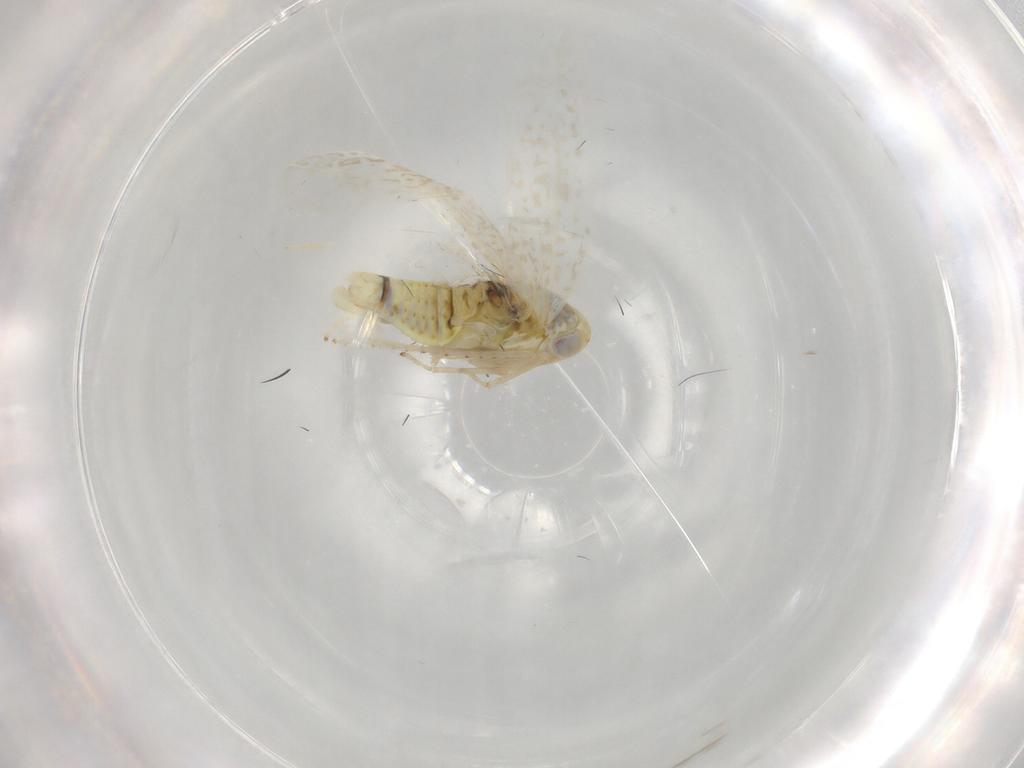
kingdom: Animalia
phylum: Arthropoda
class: Insecta
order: Hemiptera
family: Cicadellidae
